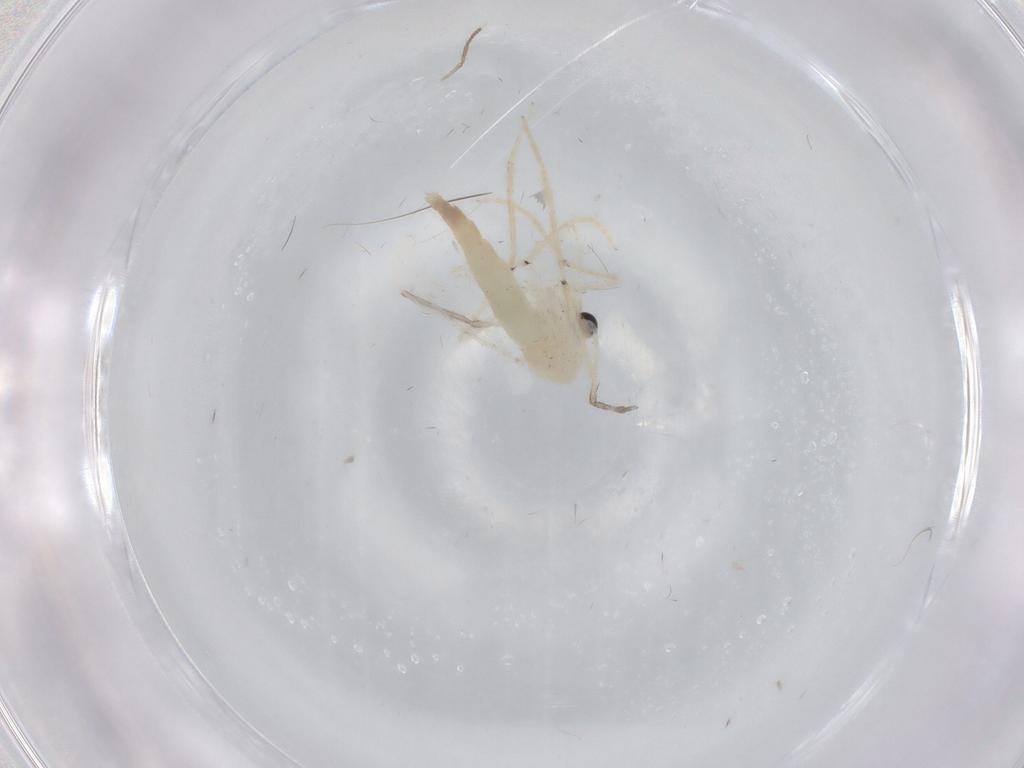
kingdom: Animalia
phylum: Arthropoda
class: Insecta
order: Diptera
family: Chironomidae
